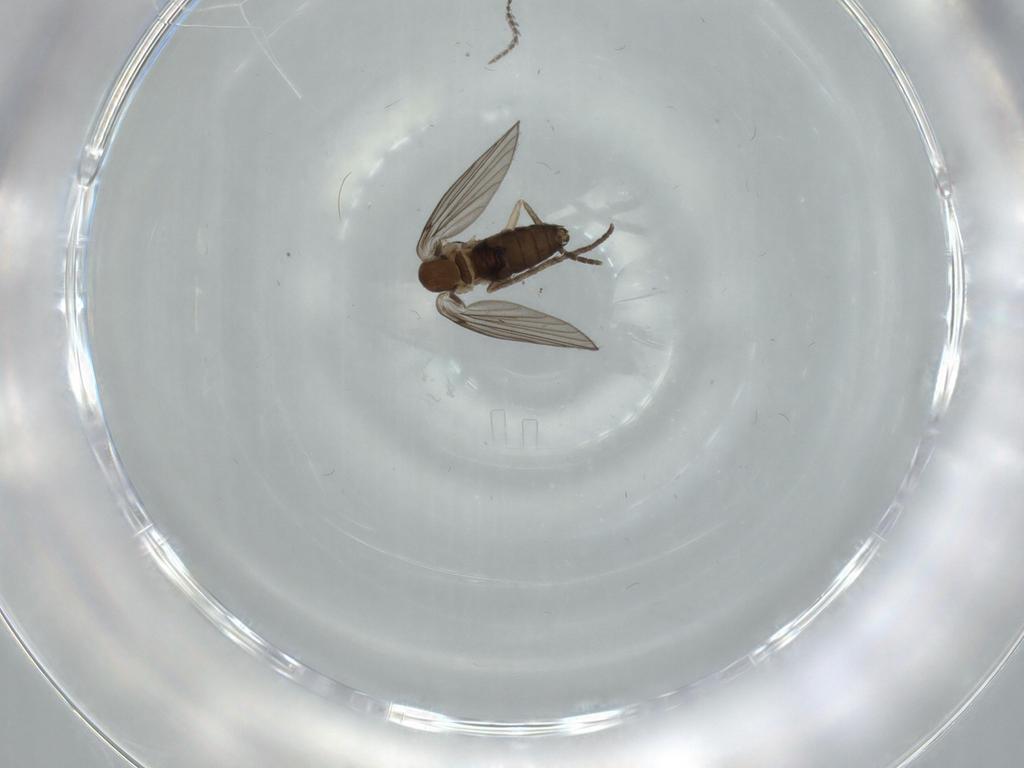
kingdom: Animalia
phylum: Arthropoda
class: Insecta
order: Diptera
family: Psychodidae
